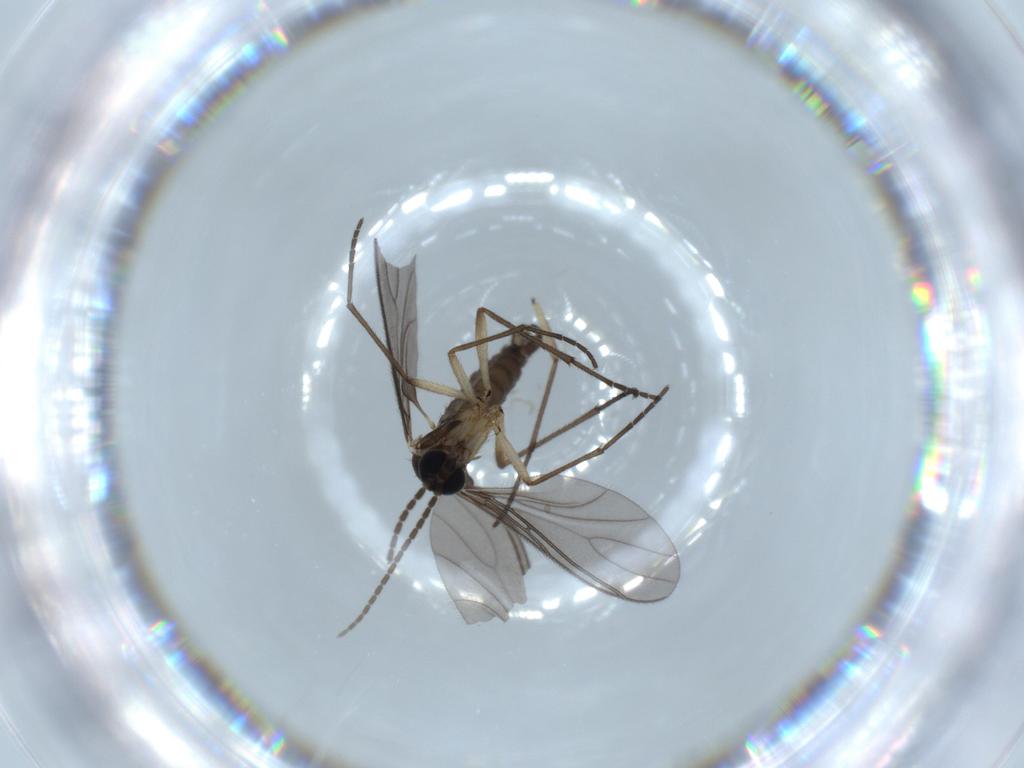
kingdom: Animalia
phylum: Arthropoda
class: Insecta
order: Diptera
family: Sciaridae
